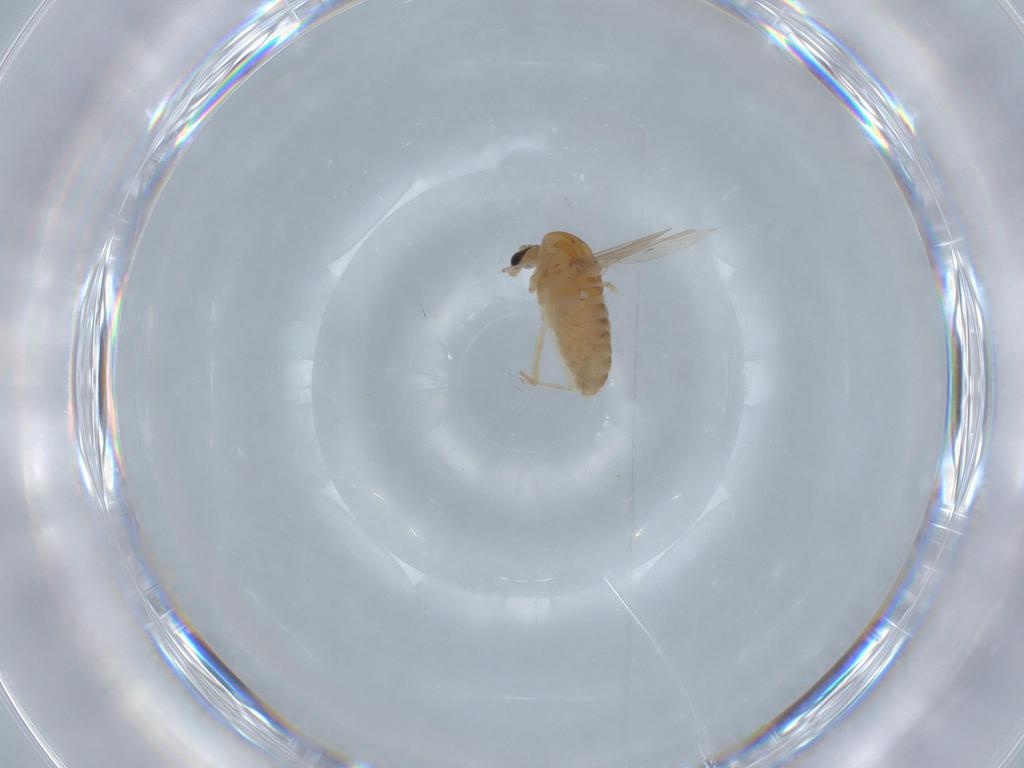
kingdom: Animalia
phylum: Arthropoda
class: Insecta
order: Diptera
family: Chironomidae
